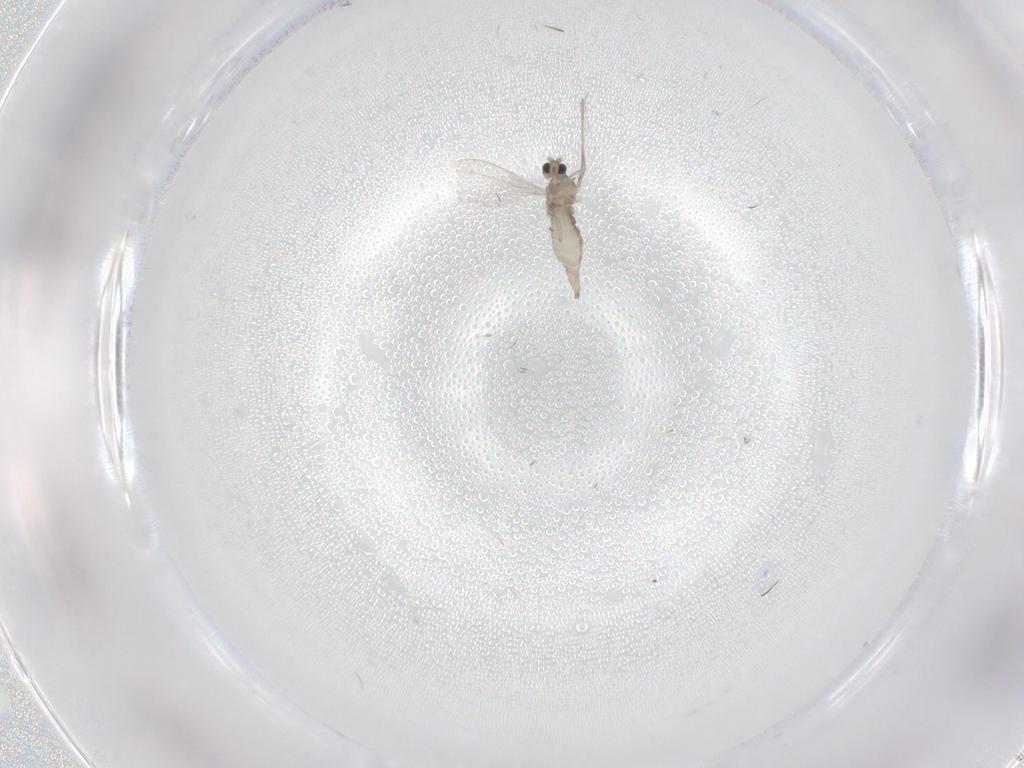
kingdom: Animalia
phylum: Arthropoda
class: Insecta
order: Diptera
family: Cecidomyiidae
